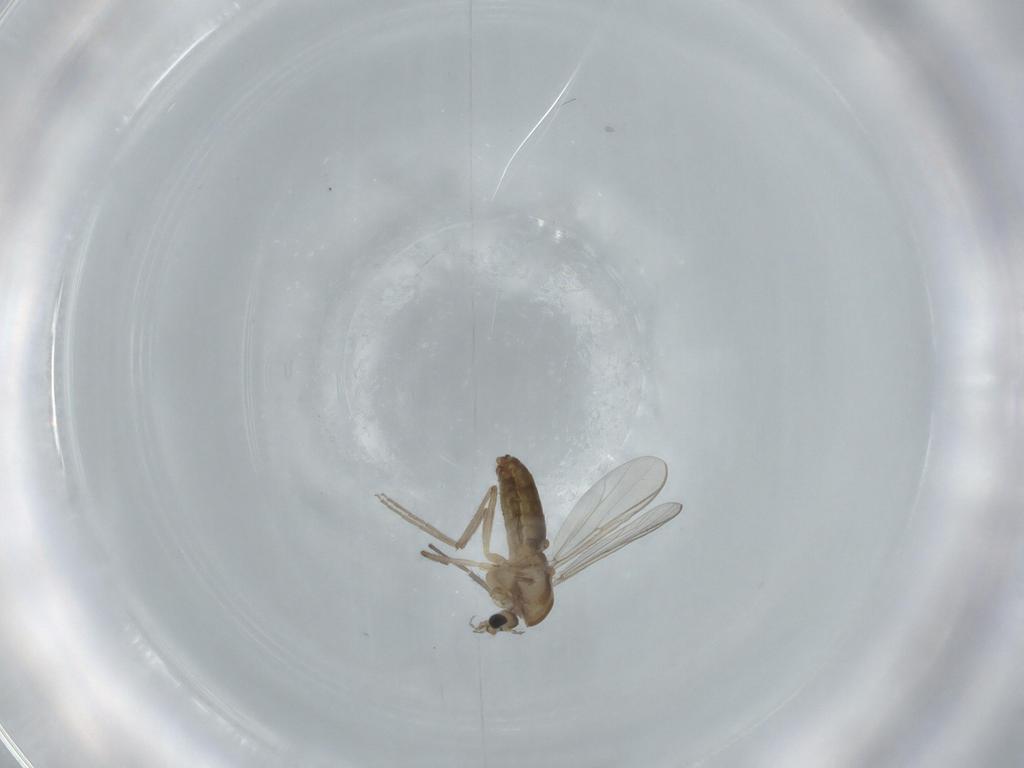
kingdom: Animalia
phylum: Arthropoda
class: Insecta
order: Diptera
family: Chironomidae
